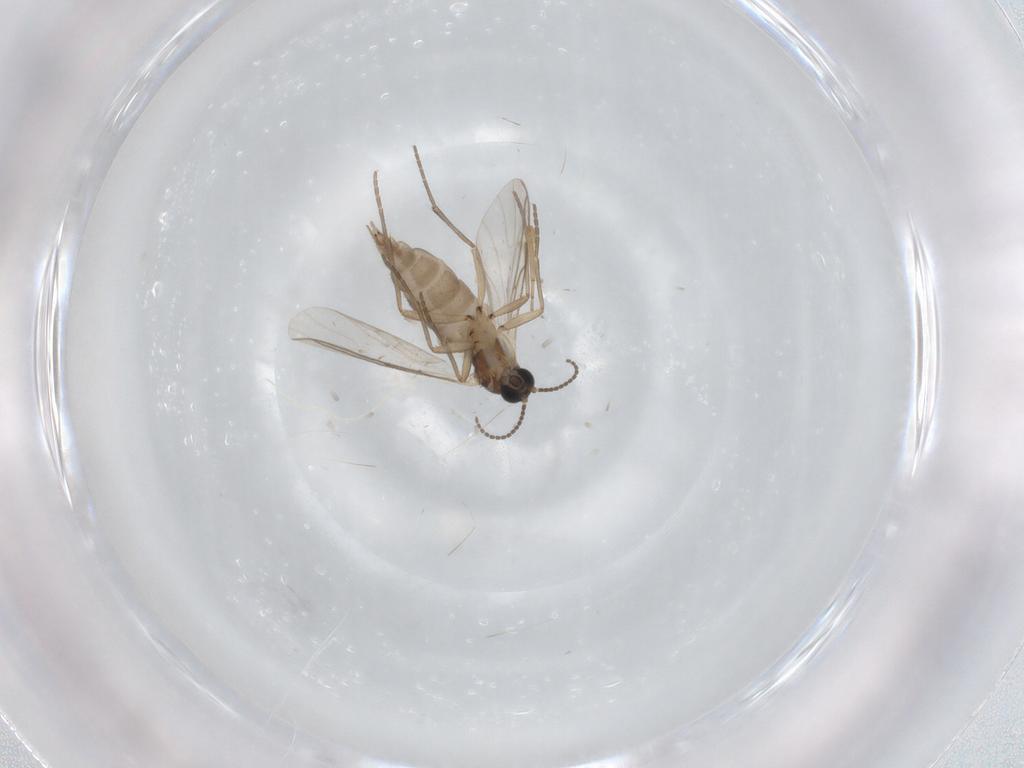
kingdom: Animalia
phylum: Arthropoda
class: Insecta
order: Diptera
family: Sciaridae
